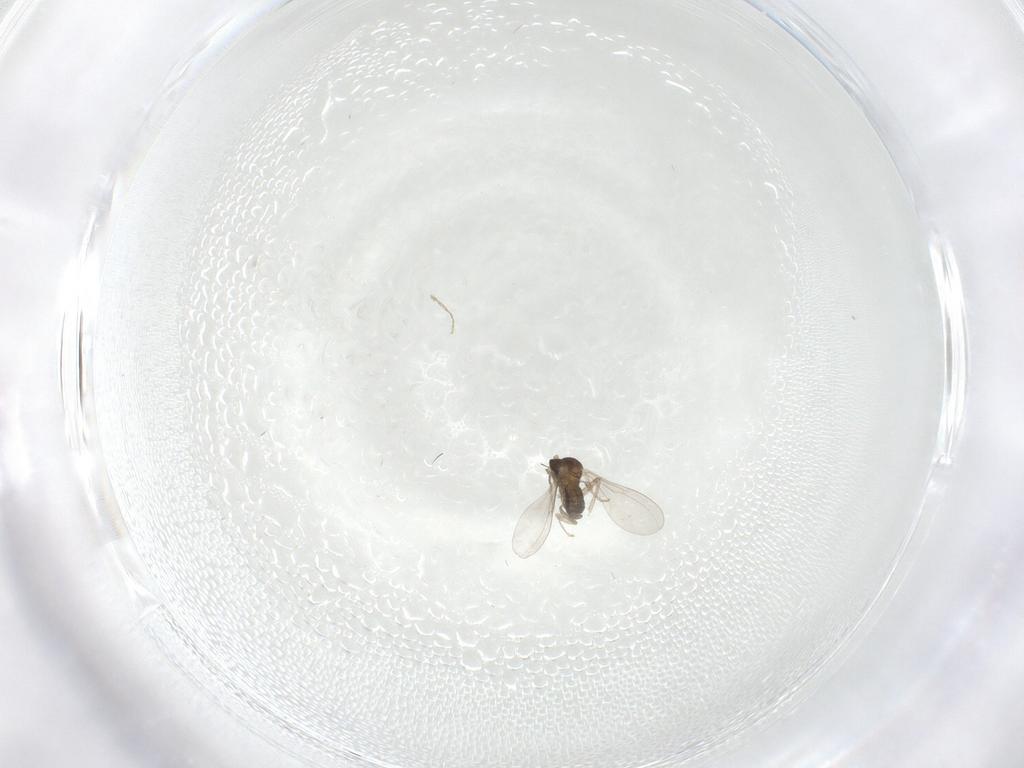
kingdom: Animalia
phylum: Arthropoda
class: Insecta
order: Diptera
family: Cecidomyiidae
